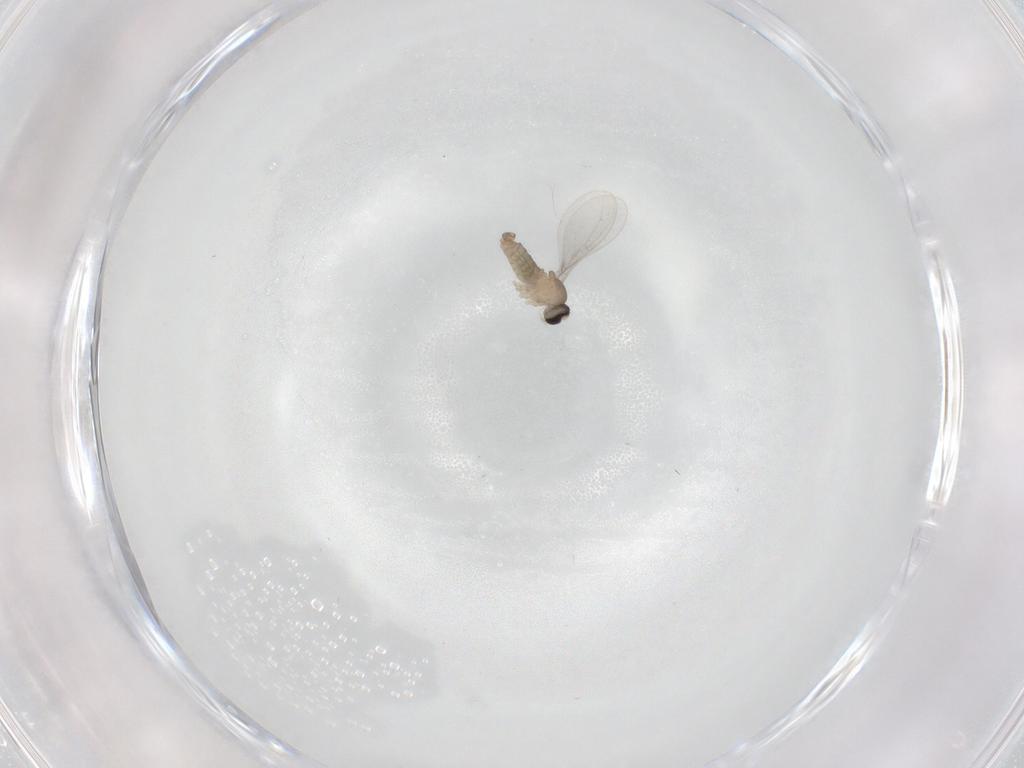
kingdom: Animalia
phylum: Arthropoda
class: Insecta
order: Diptera
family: Cecidomyiidae
